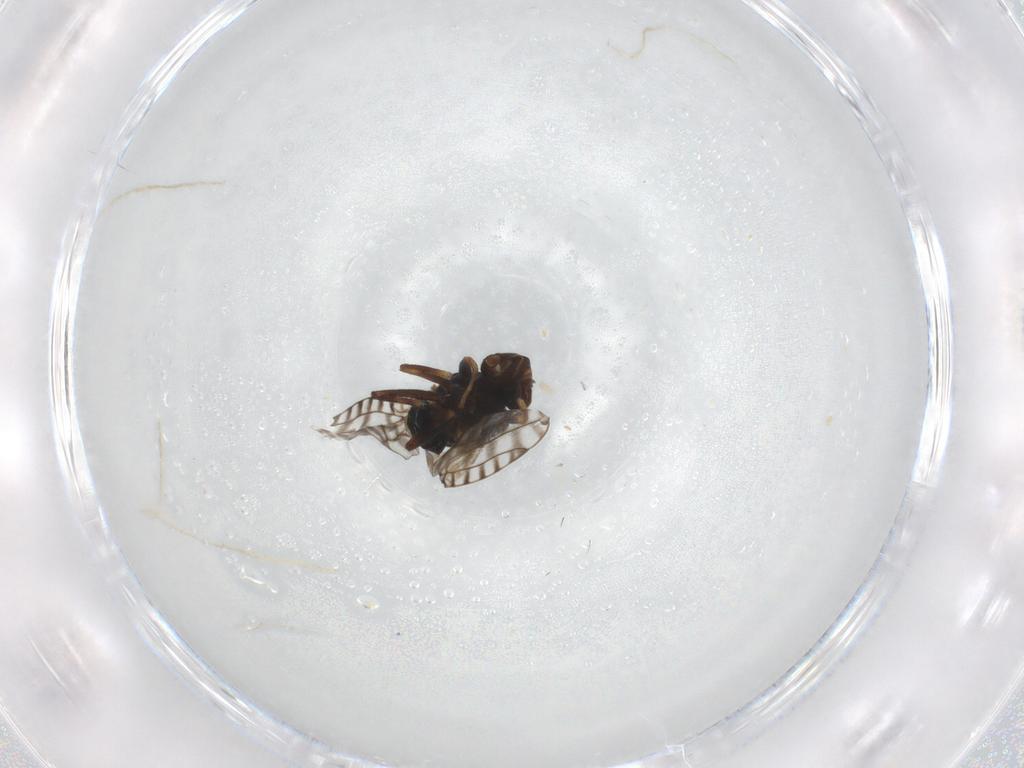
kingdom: Animalia
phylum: Arthropoda
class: Insecta
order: Diptera
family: Ephydridae
